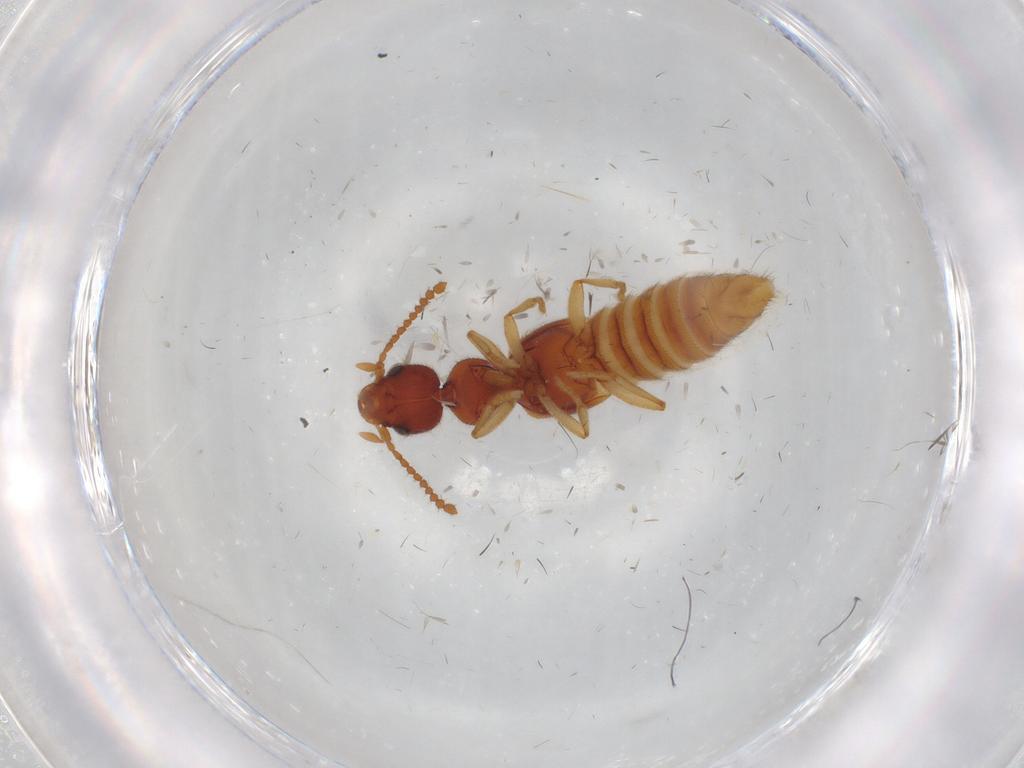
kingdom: Animalia
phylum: Arthropoda
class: Insecta
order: Coleoptera
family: Staphylinidae
